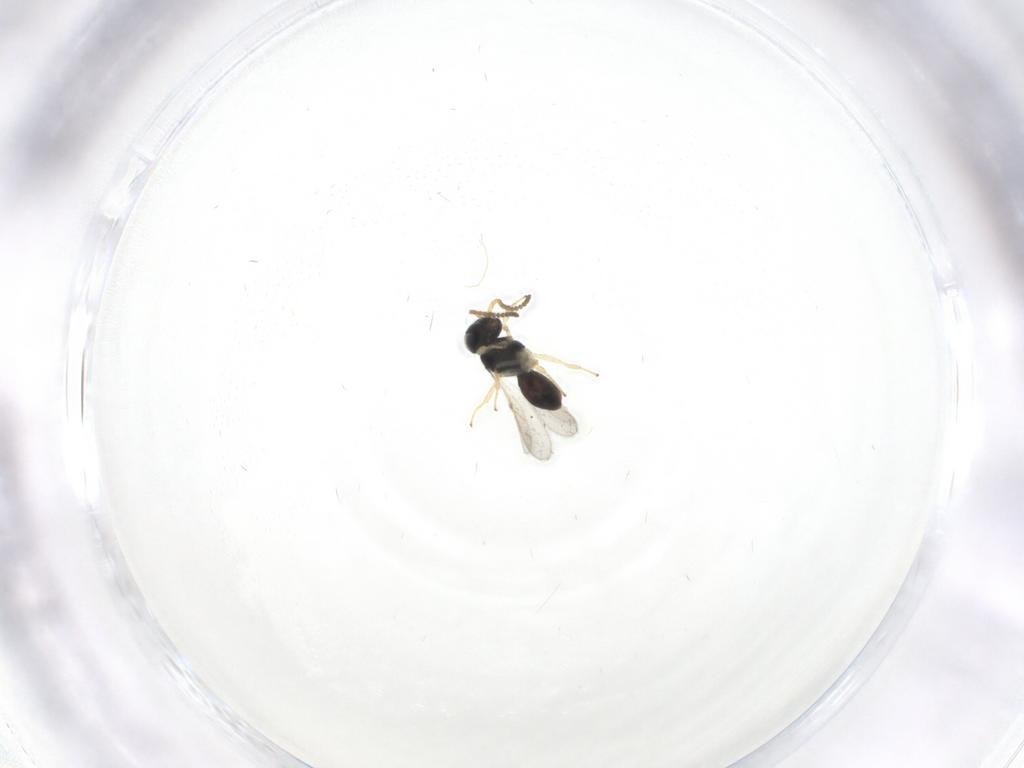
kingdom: Animalia
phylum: Arthropoda
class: Insecta
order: Hymenoptera
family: Scelionidae
